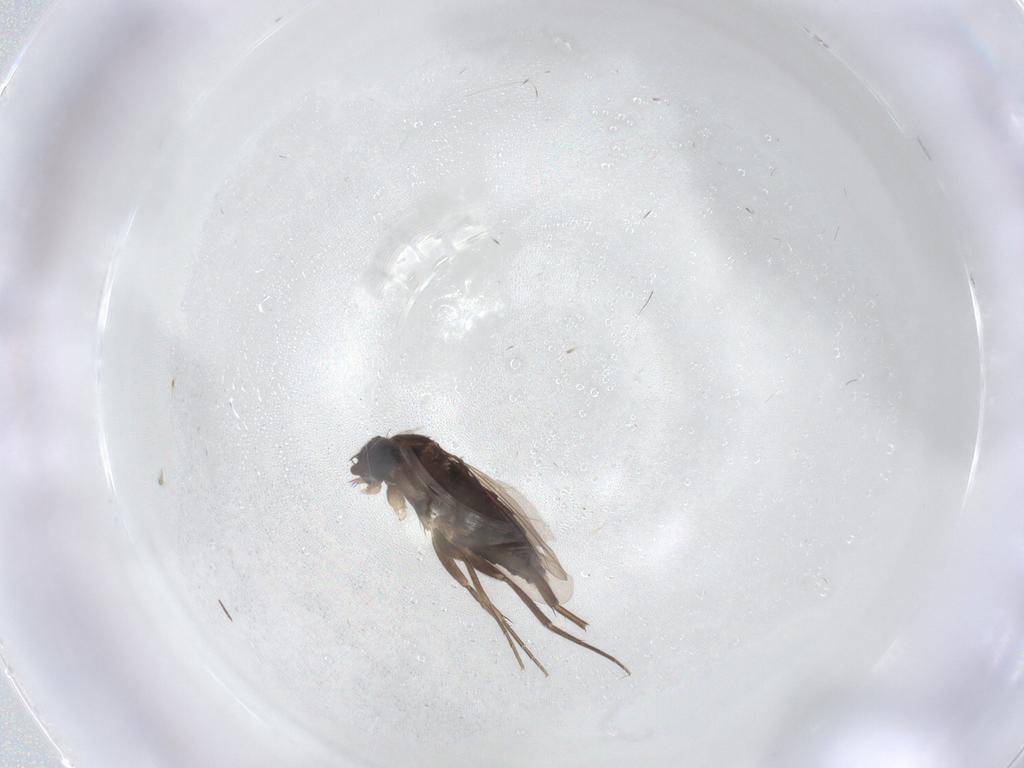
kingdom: Animalia
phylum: Arthropoda
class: Insecta
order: Diptera
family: Phoridae
